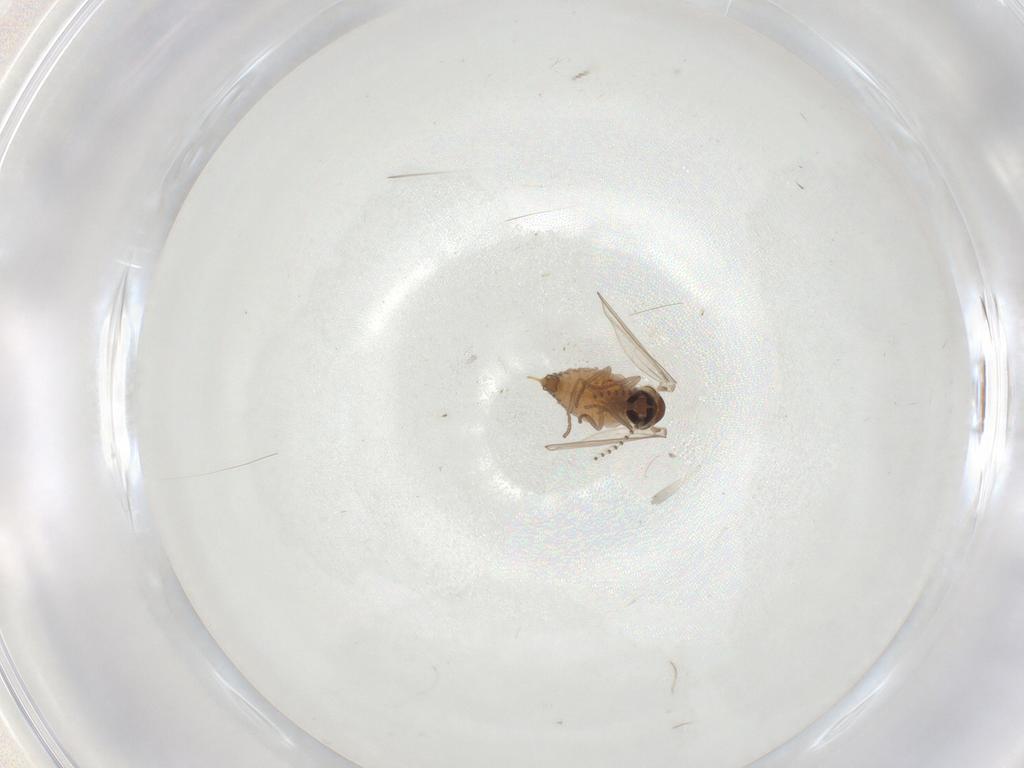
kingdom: Animalia
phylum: Arthropoda
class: Insecta
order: Diptera
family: Psychodidae
